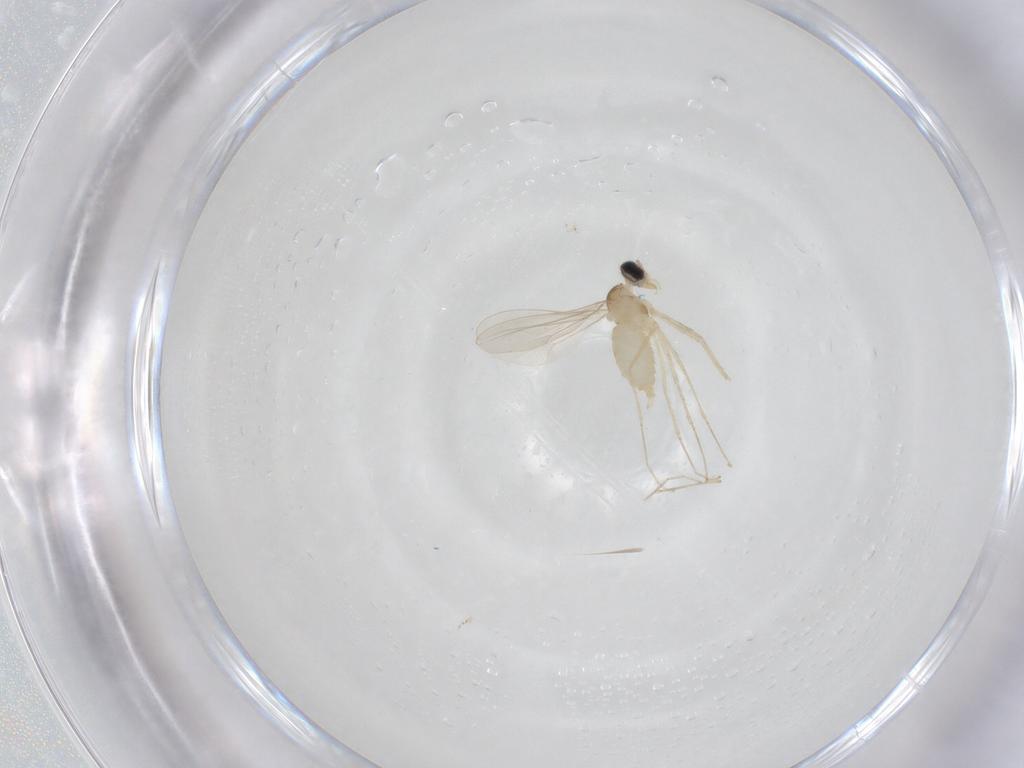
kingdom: Animalia
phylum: Arthropoda
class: Insecta
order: Diptera
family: Cecidomyiidae
